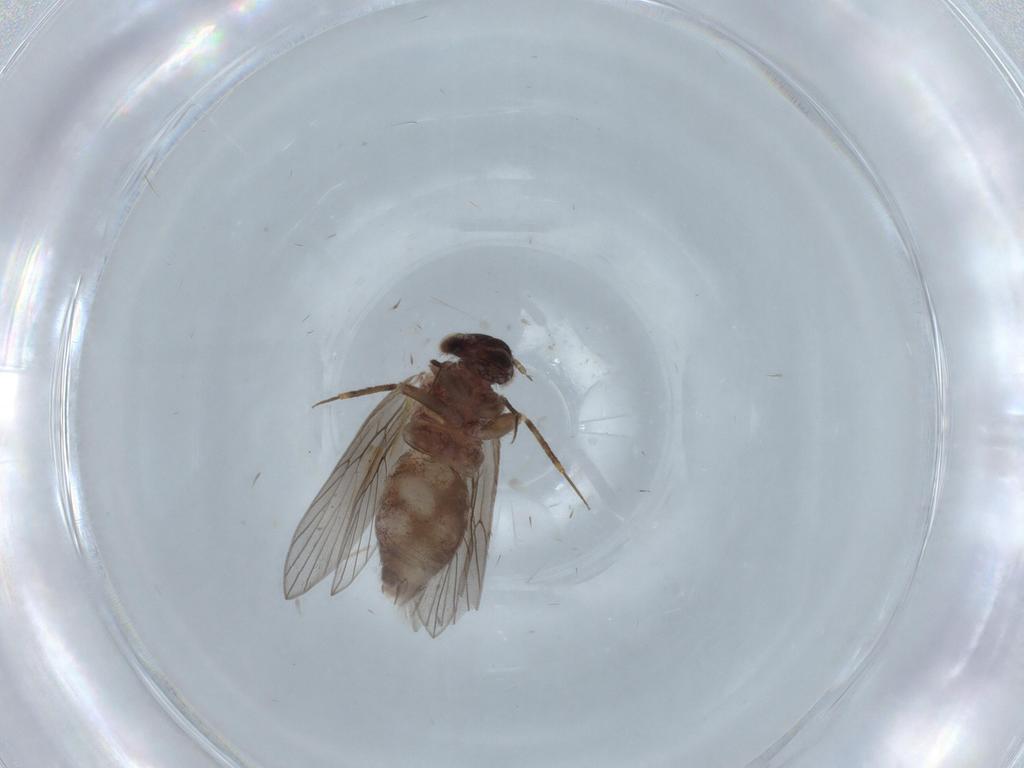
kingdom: Animalia
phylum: Arthropoda
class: Insecta
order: Psocodea
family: Lepidopsocidae
